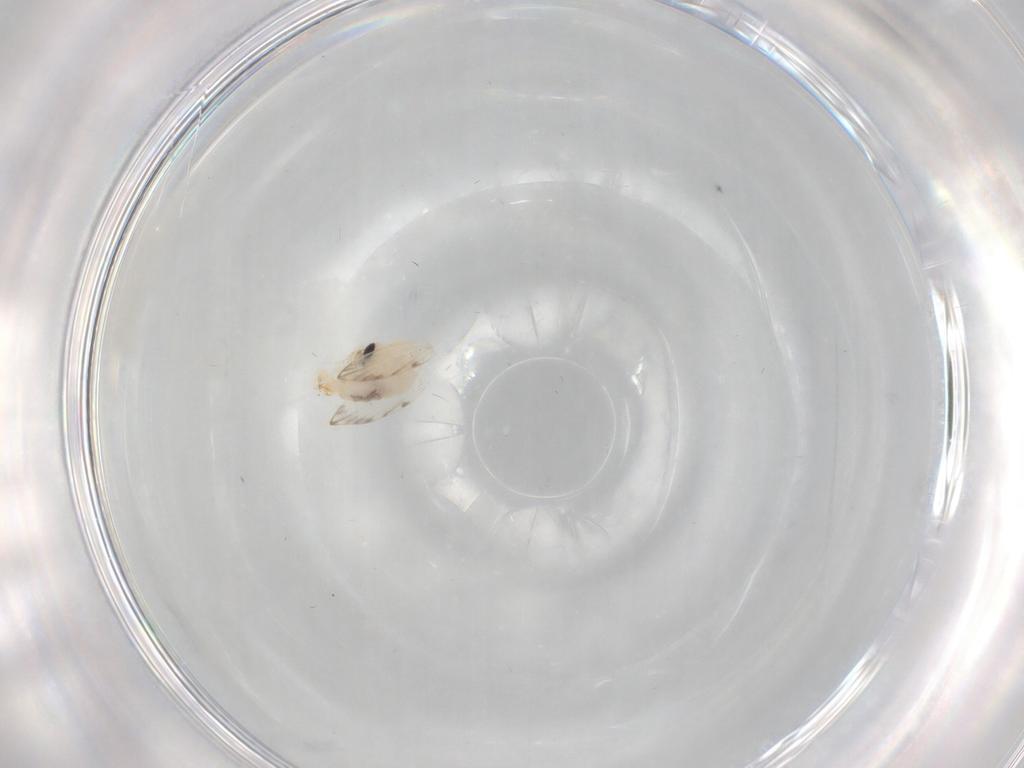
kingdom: Animalia
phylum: Arthropoda
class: Insecta
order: Diptera
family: Psychodidae
